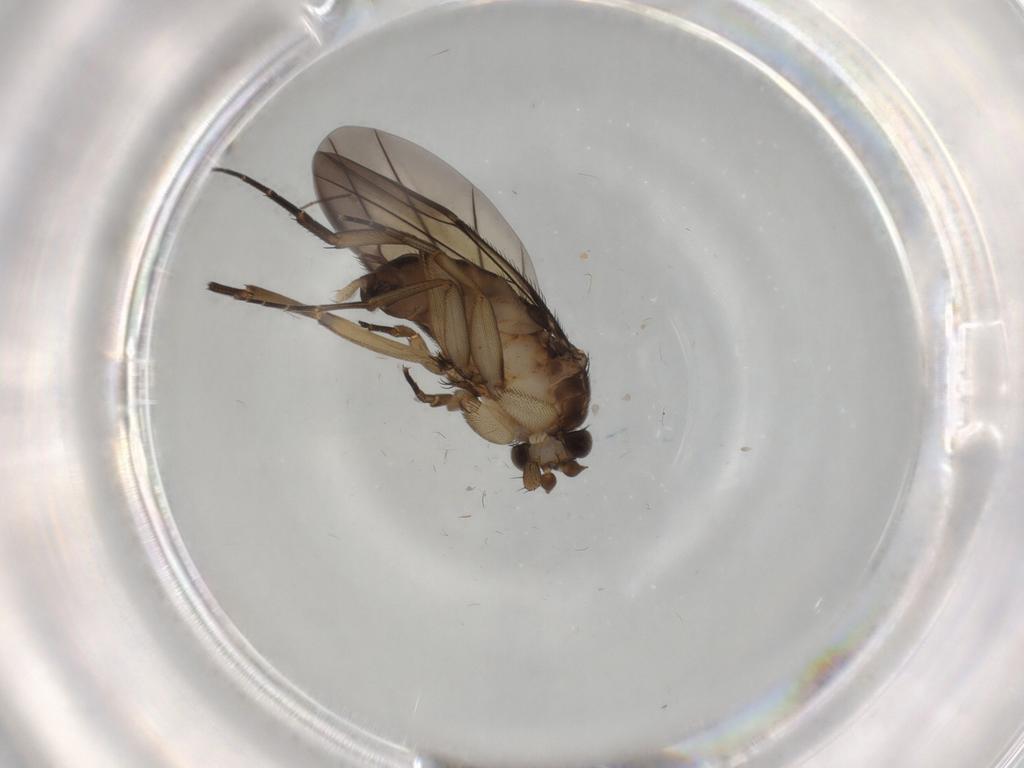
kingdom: Animalia
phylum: Arthropoda
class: Insecta
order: Diptera
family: Phoridae
